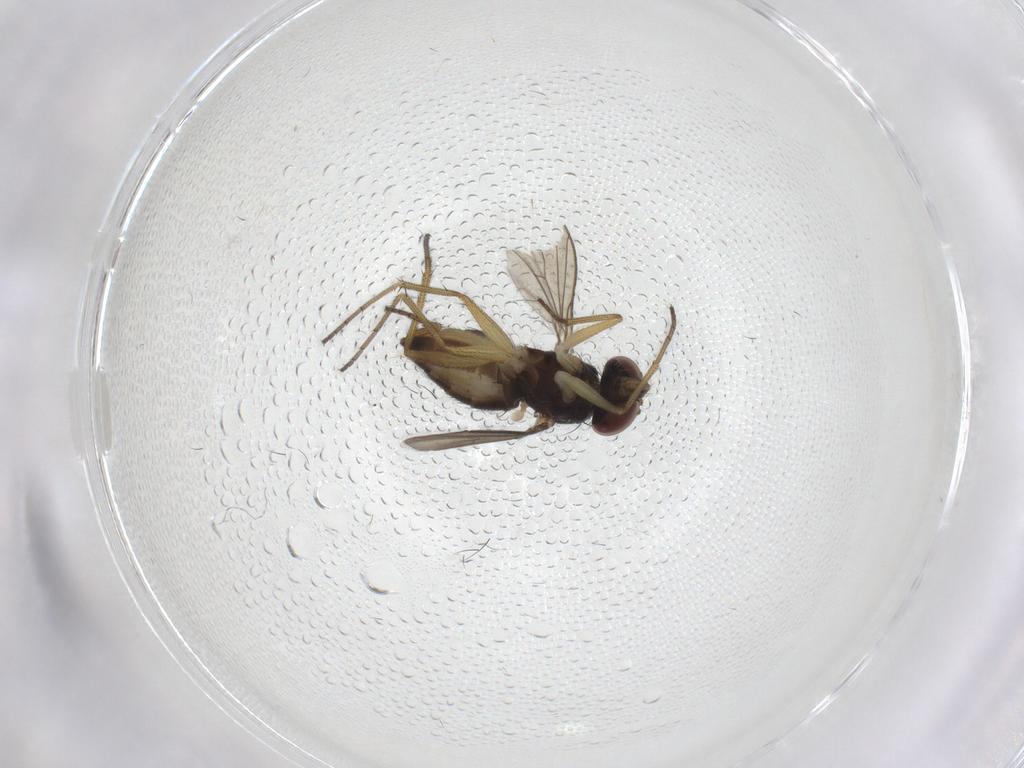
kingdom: Animalia
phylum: Arthropoda
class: Insecta
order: Diptera
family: Dolichopodidae
